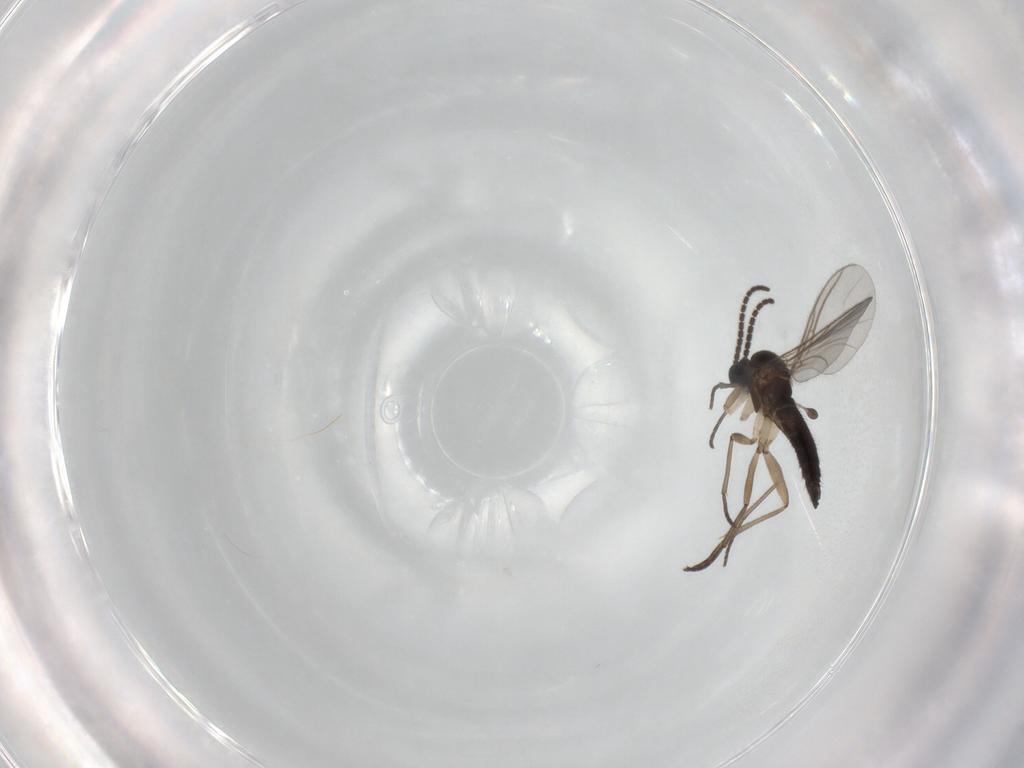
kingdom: Animalia
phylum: Arthropoda
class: Insecta
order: Diptera
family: Sciaridae
